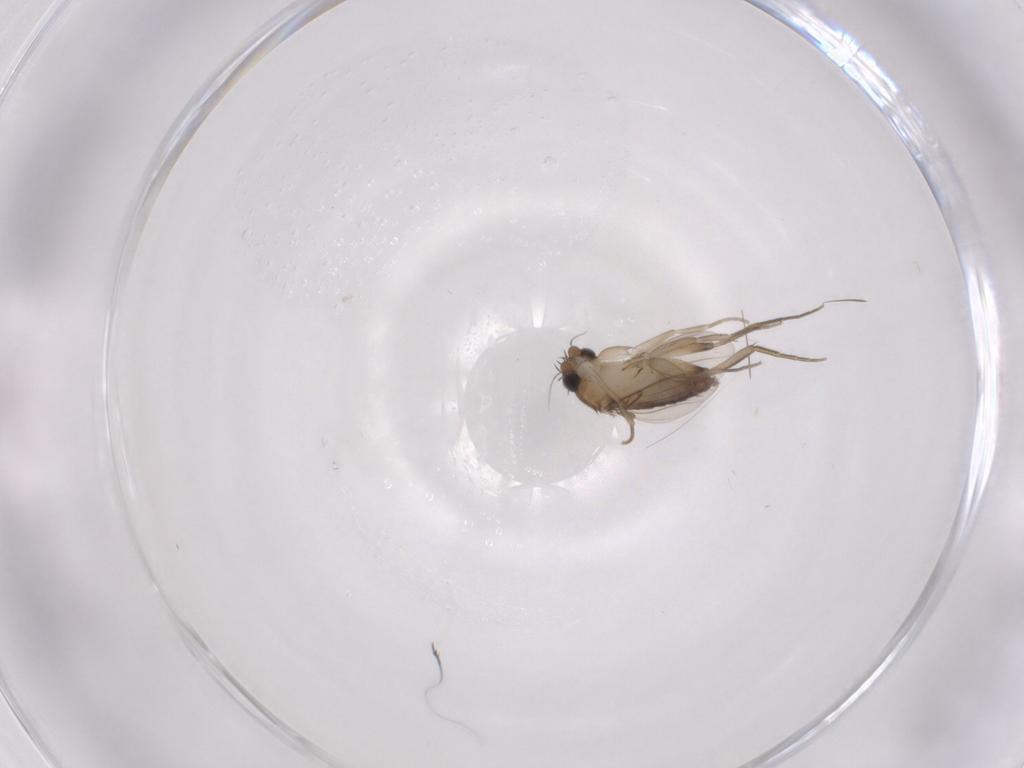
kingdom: Animalia
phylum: Arthropoda
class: Insecta
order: Diptera
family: Phoridae
